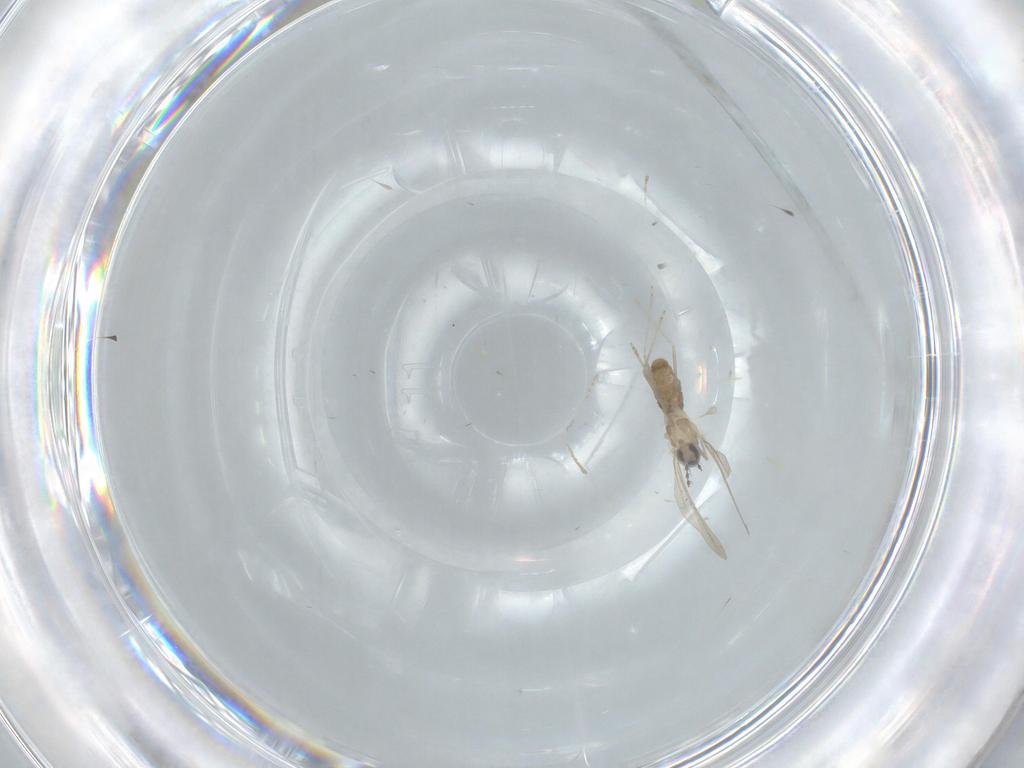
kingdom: Animalia
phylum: Arthropoda
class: Insecta
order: Diptera
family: Cecidomyiidae
